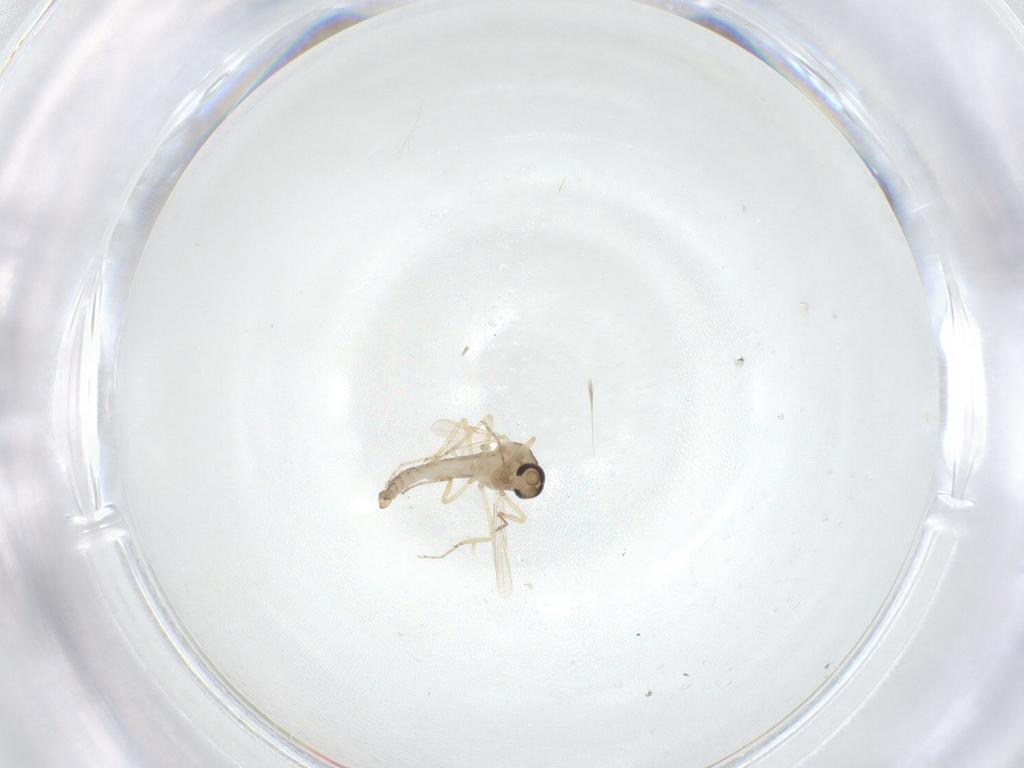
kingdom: Animalia
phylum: Arthropoda
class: Insecta
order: Diptera
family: Ceratopogonidae
